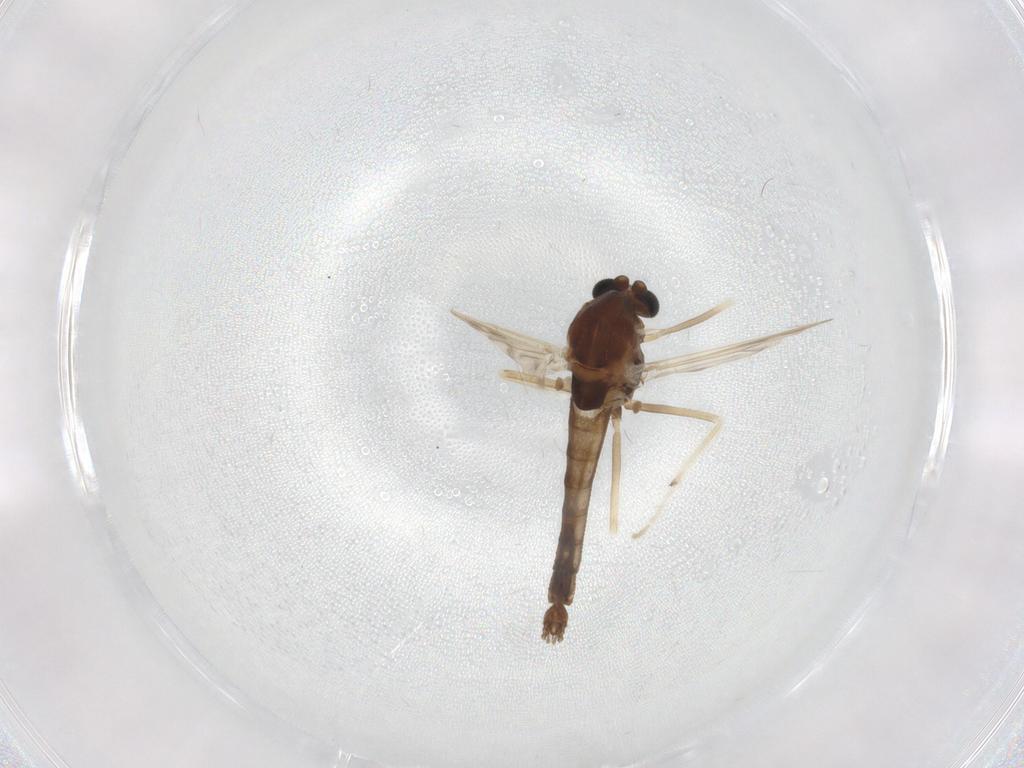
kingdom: Animalia
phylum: Arthropoda
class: Insecta
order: Diptera
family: Chironomidae
